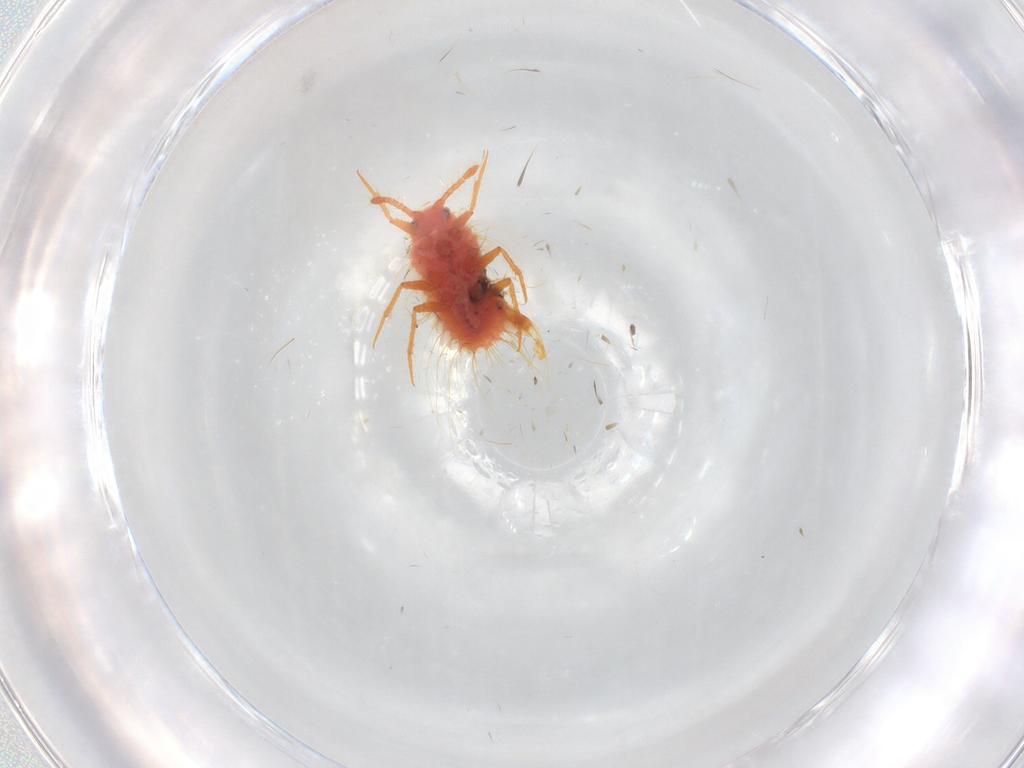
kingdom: Animalia
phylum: Arthropoda
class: Insecta
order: Hemiptera
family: Coccoidea_incertae_sedis
